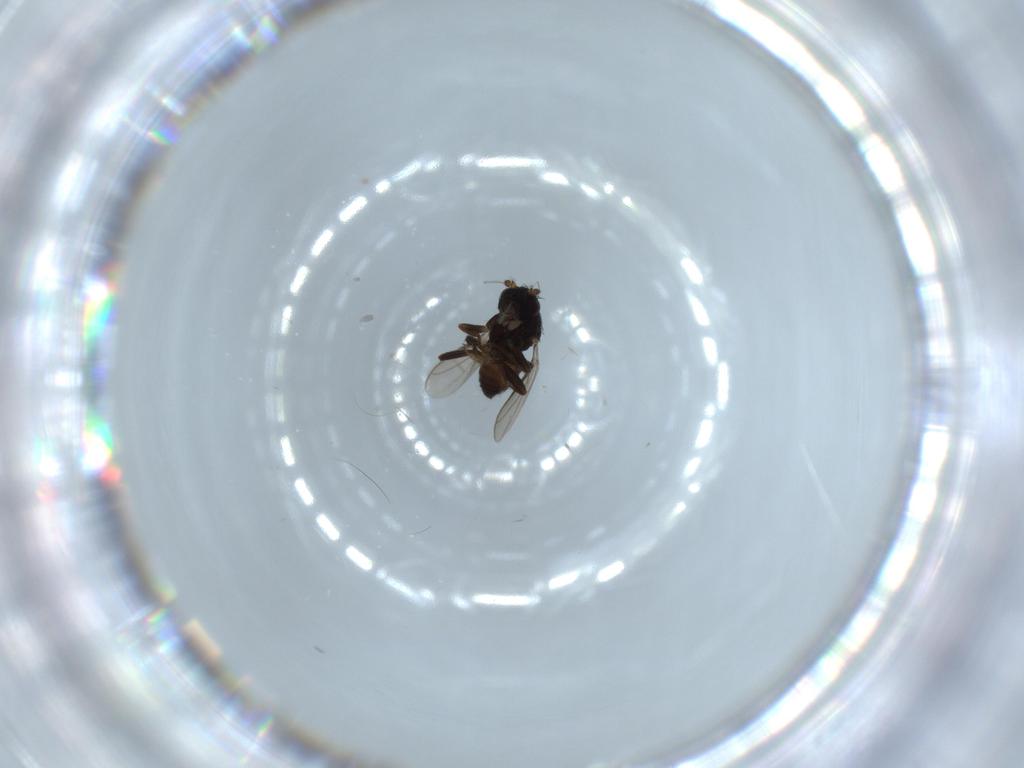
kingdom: Animalia
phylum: Arthropoda
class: Insecta
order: Diptera
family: Sphaeroceridae
